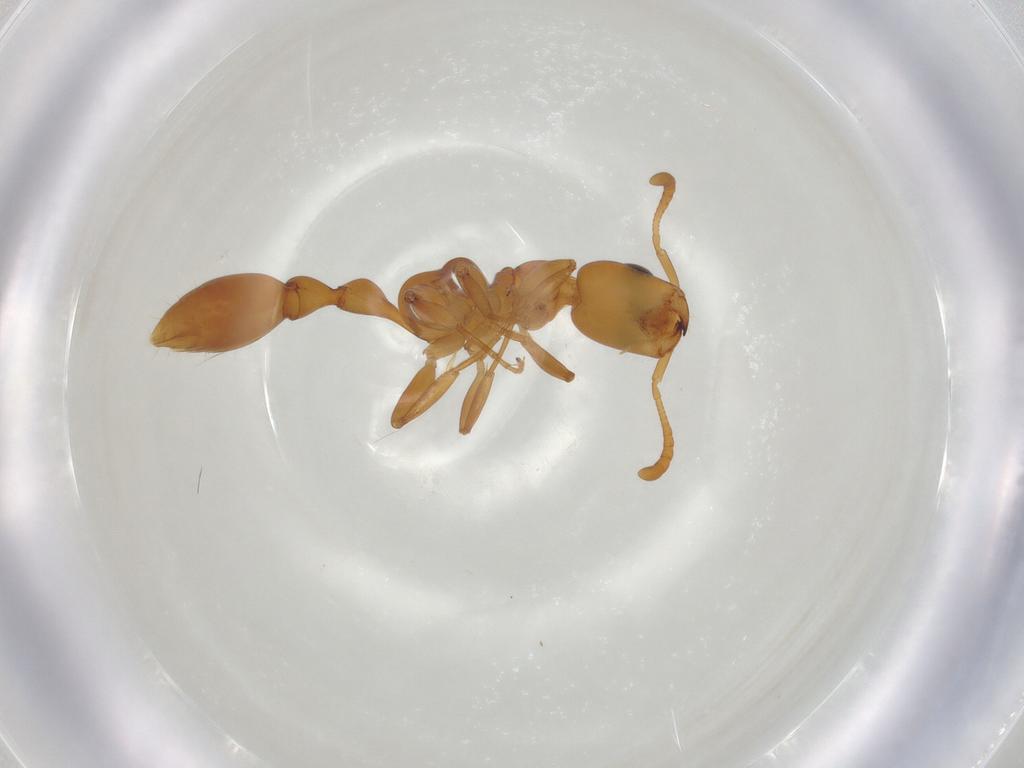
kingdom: Animalia
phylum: Arthropoda
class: Insecta
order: Hymenoptera
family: Formicidae
